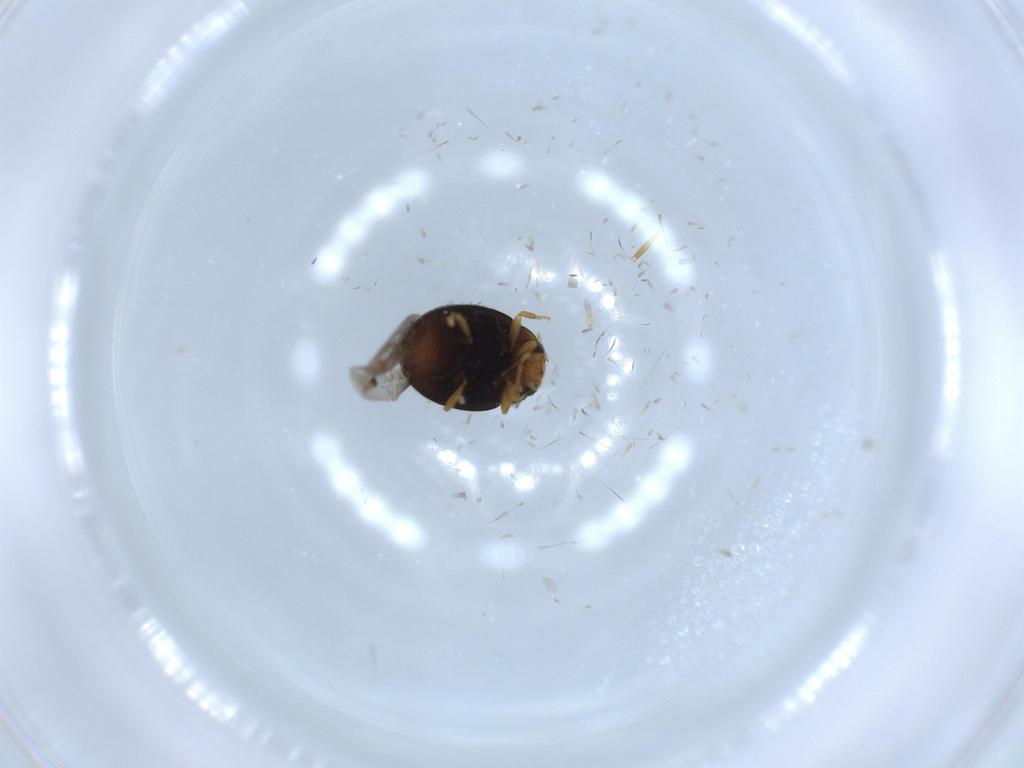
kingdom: Animalia
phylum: Arthropoda
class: Insecta
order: Coleoptera
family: Coccinellidae
